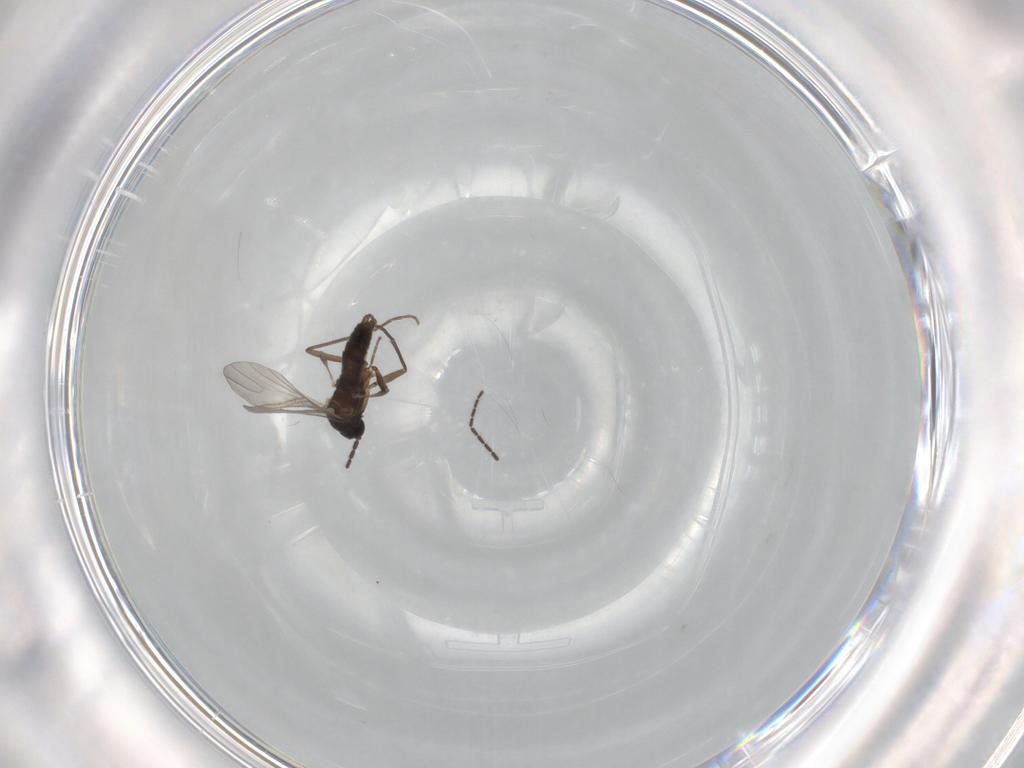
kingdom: Animalia
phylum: Arthropoda
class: Insecta
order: Diptera
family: Sciaridae
